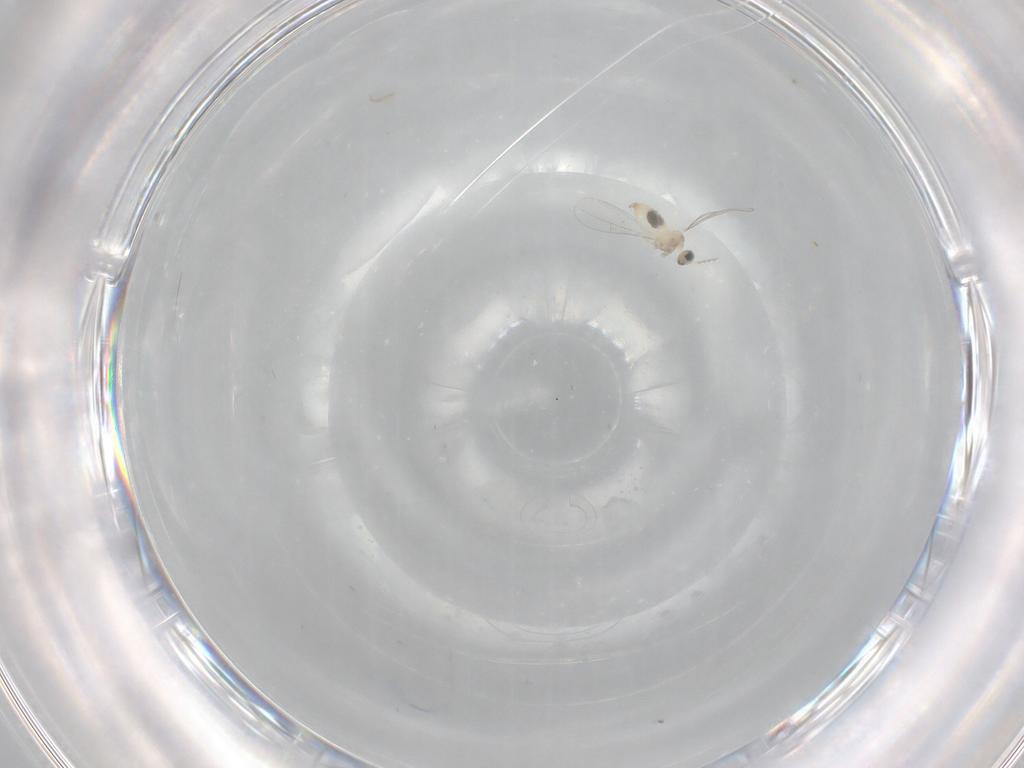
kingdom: Animalia
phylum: Arthropoda
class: Insecta
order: Diptera
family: Cecidomyiidae
